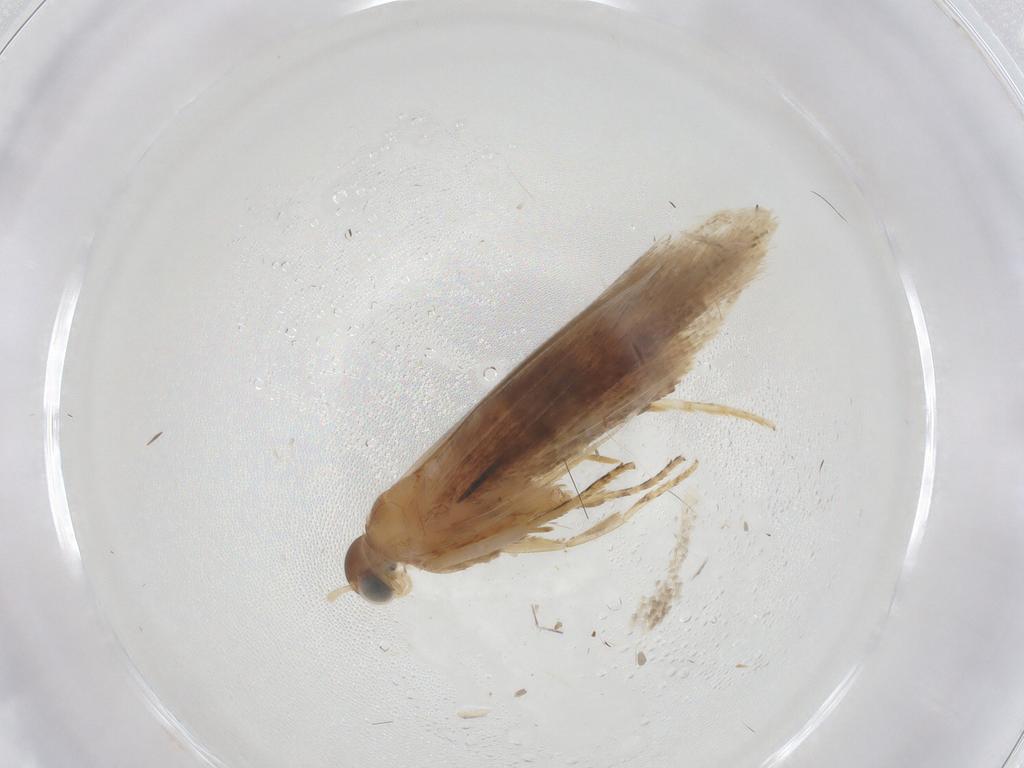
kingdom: Animalia
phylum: Arthropoda
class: Insecta
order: Lepidoptera
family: Gelechiidae
